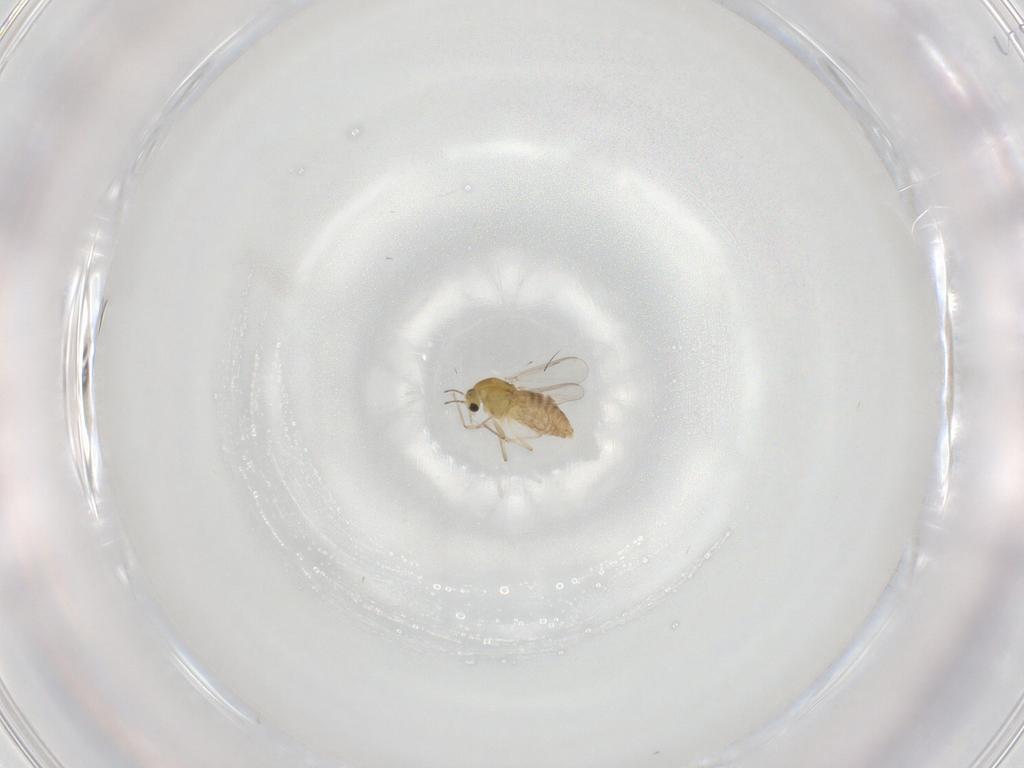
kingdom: Animalia
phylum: Arthropoda
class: Insecta
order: Diptera
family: Chironomidae
